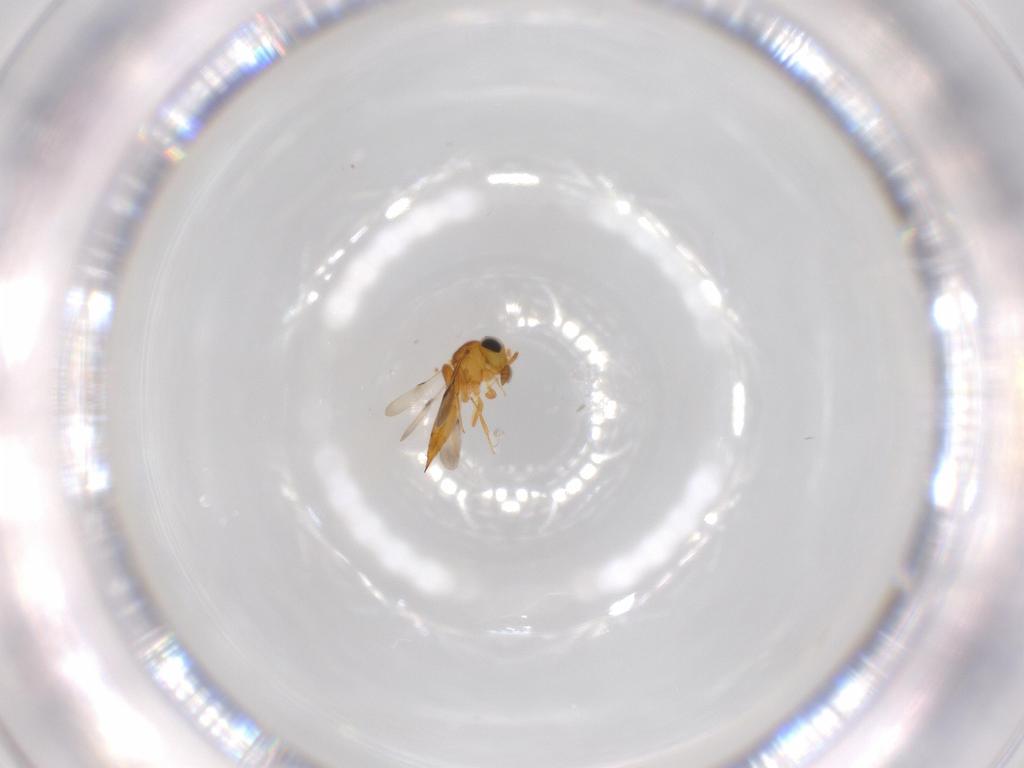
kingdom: Animalia
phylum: Arthropoda
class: Insecta
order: Hymenoptera
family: Scelionidae
